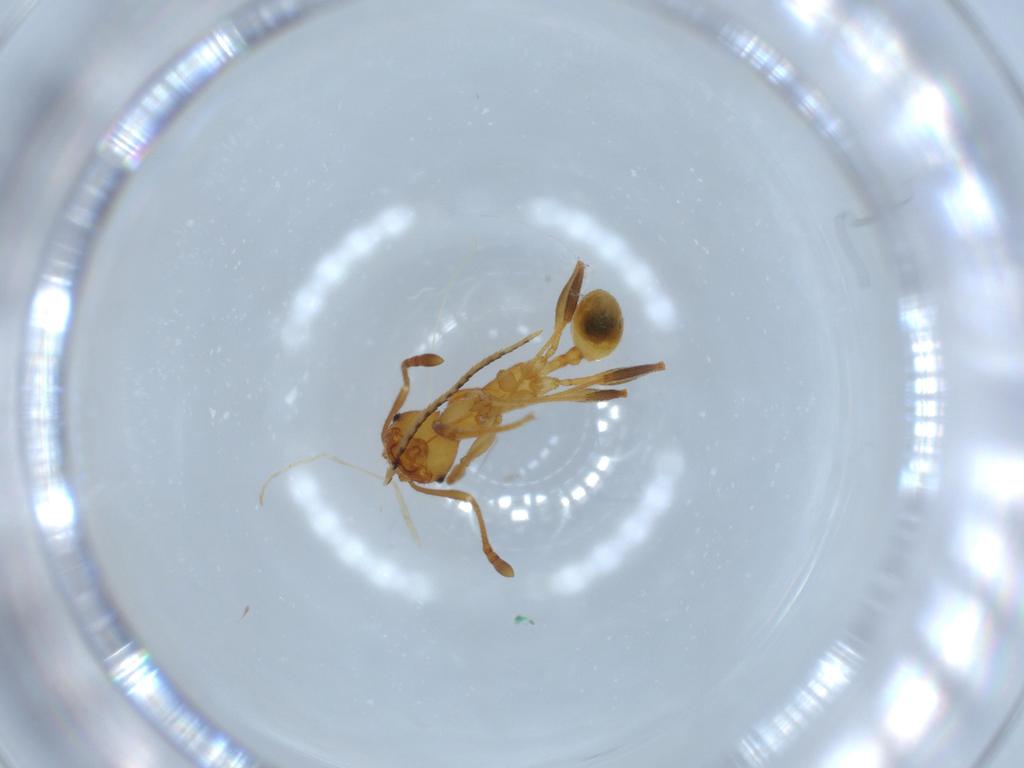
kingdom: Animalia
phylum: Arthropoda
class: Insecta
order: Hymenoptera
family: Formicidae
